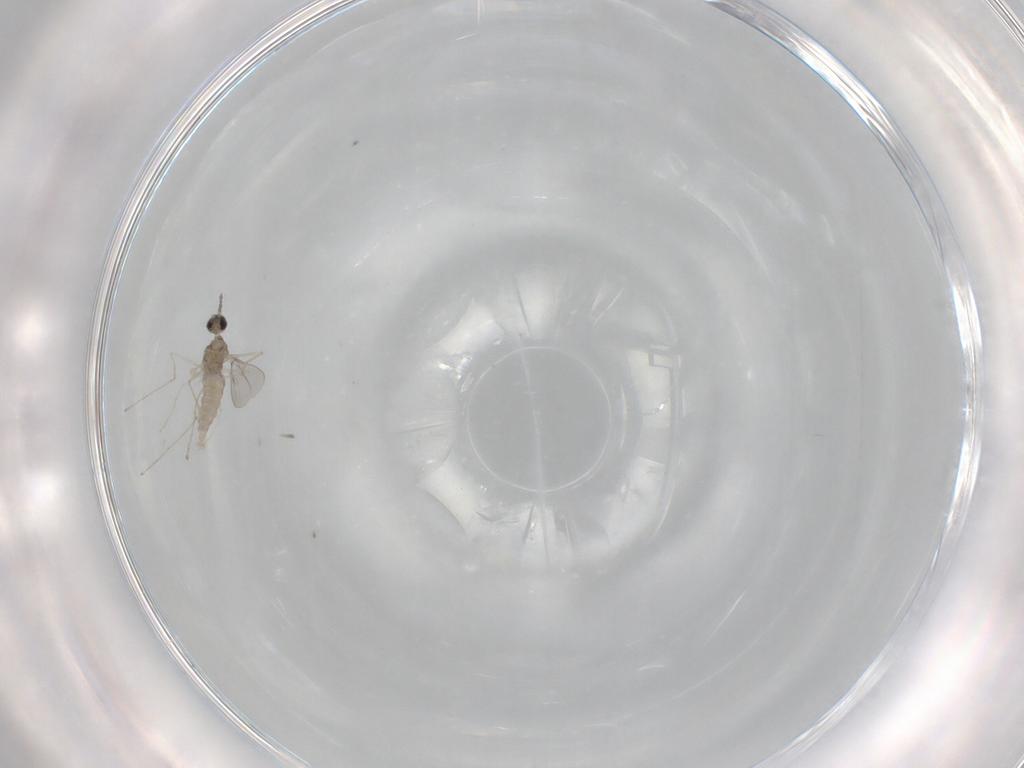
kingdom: Animalia
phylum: Arthropoda
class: Insecta
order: Diptera
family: Cecidomyiidae
